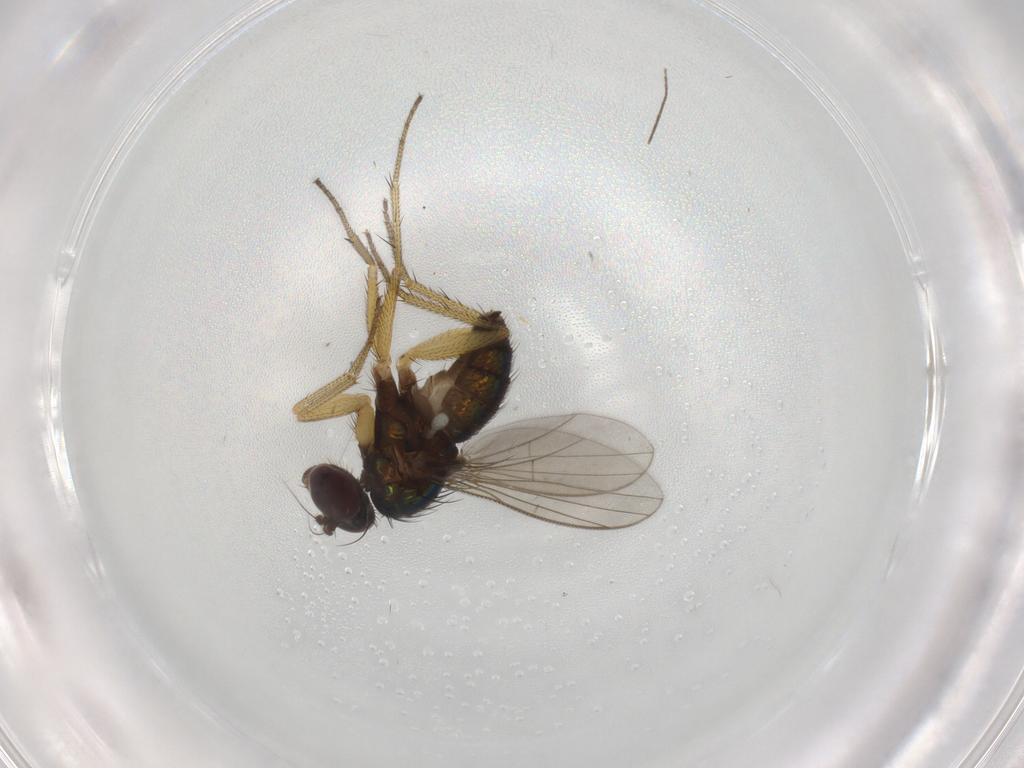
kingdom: Animalia
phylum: Arthropoda
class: Insecta
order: Diptera
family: Dolichopodidae
